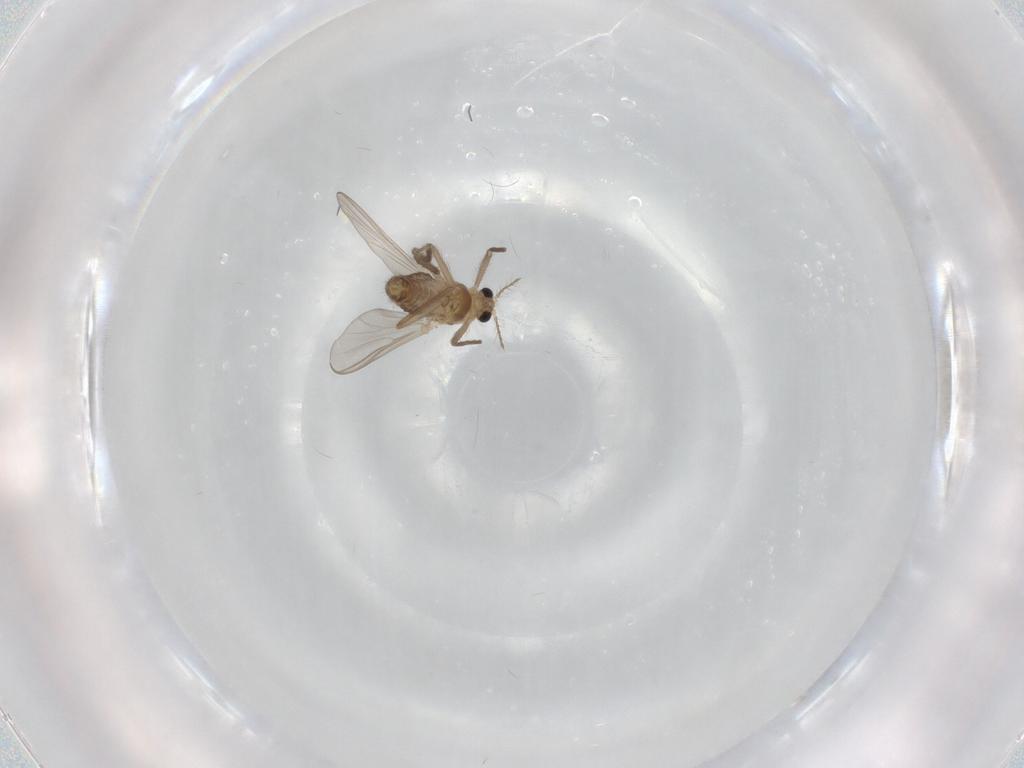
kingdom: Animalia
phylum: Arthropoda
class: Insecta
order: Diptera
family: Chironomidae
